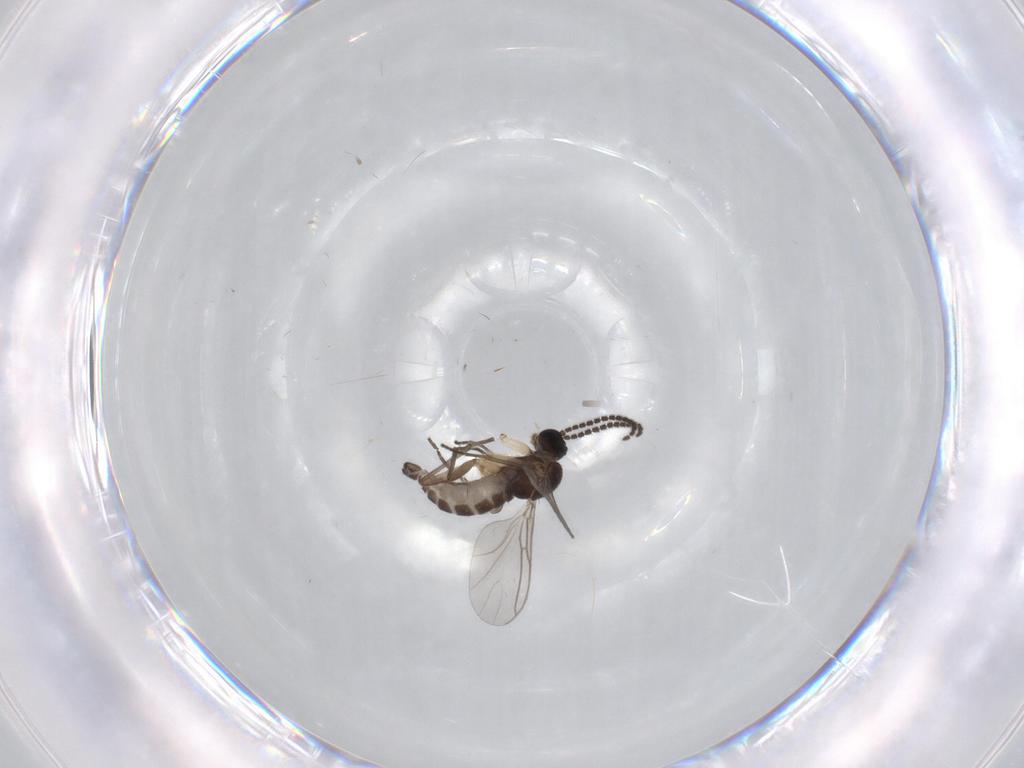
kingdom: Animalia
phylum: Arthropoda
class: Insecta
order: Diptera
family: Sciaridae
